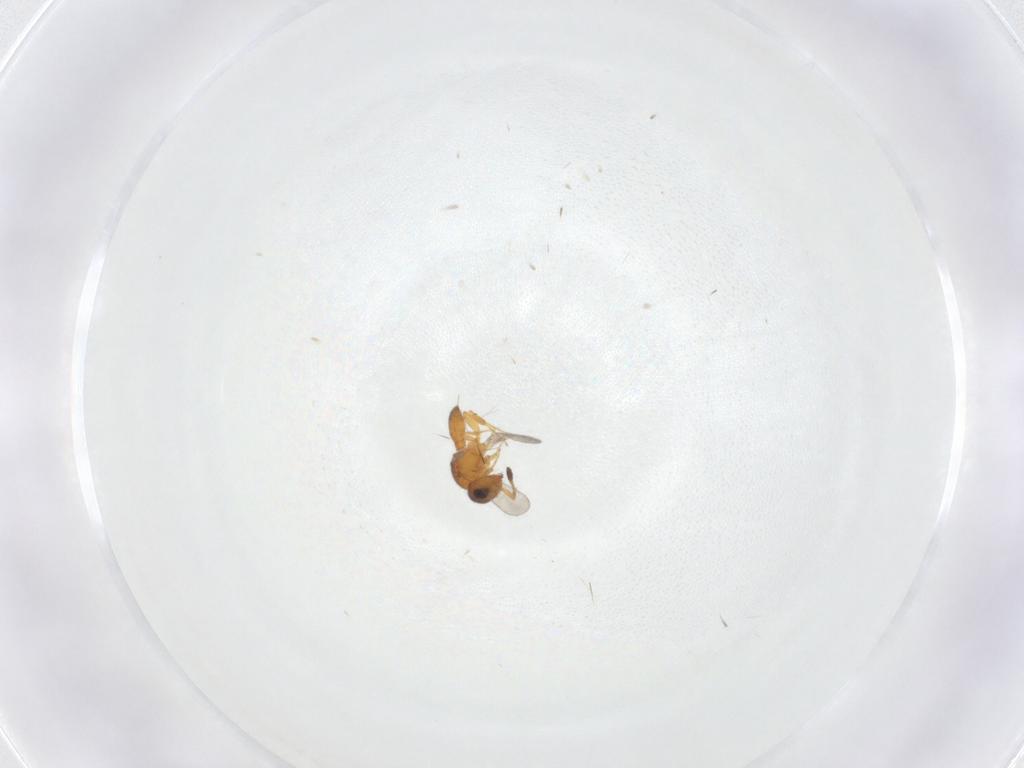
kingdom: Animalia
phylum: Arthropoda
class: Insecta
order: Hymenoptera
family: Scelionidae
